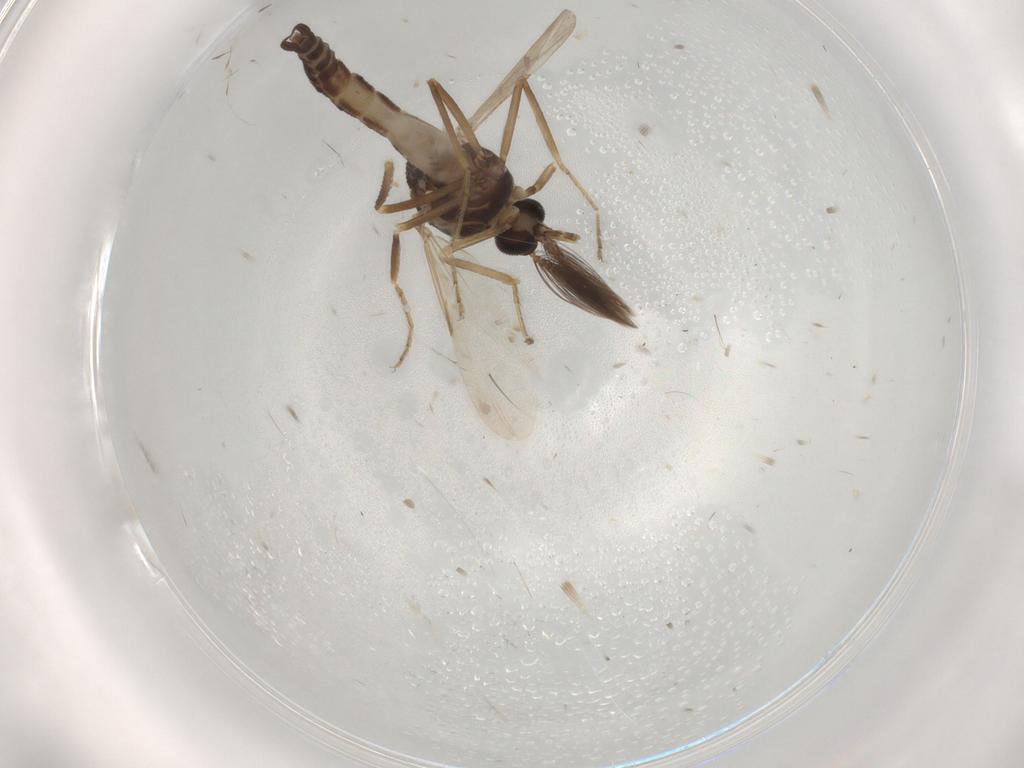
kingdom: Animalia
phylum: Arthropoda
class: Insecta
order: Diptera
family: Ceratopogonidae
